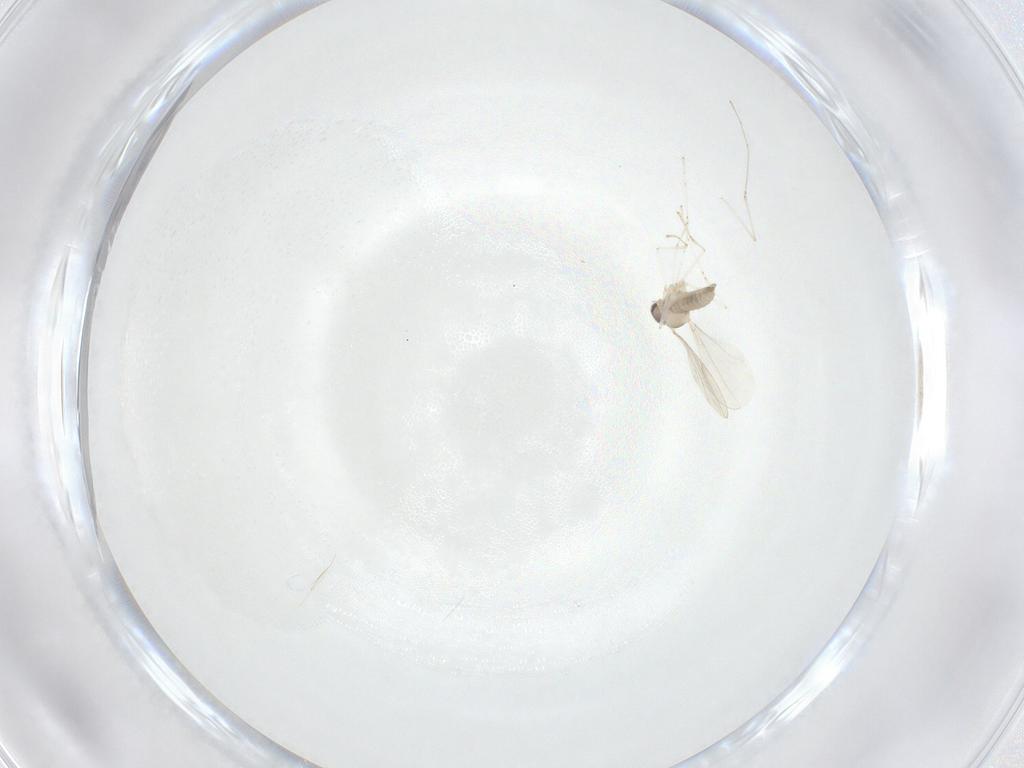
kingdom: Animalia
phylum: Arthropoda
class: Insecta
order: Diptera
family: Cecidomyiidae
